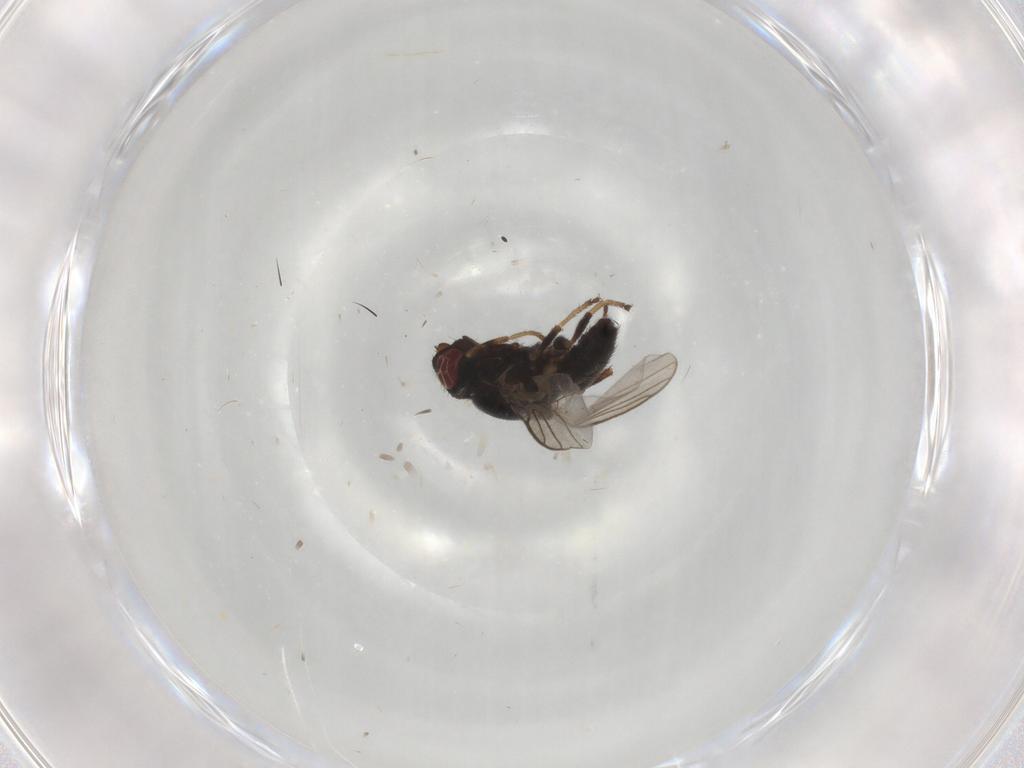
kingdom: Animalia
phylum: Arthropoda
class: Insecta
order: Diptera
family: Chloropidae
